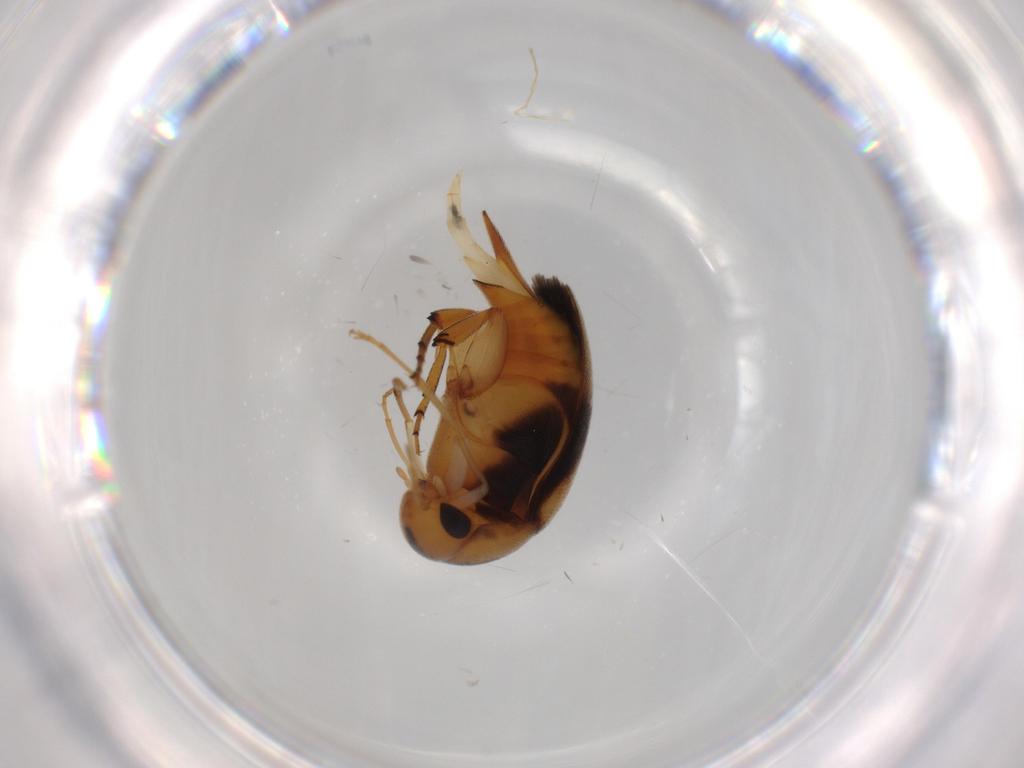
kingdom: Animalia
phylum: Arthropoda
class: Insecta
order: Coleoptera
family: Mordellidae
